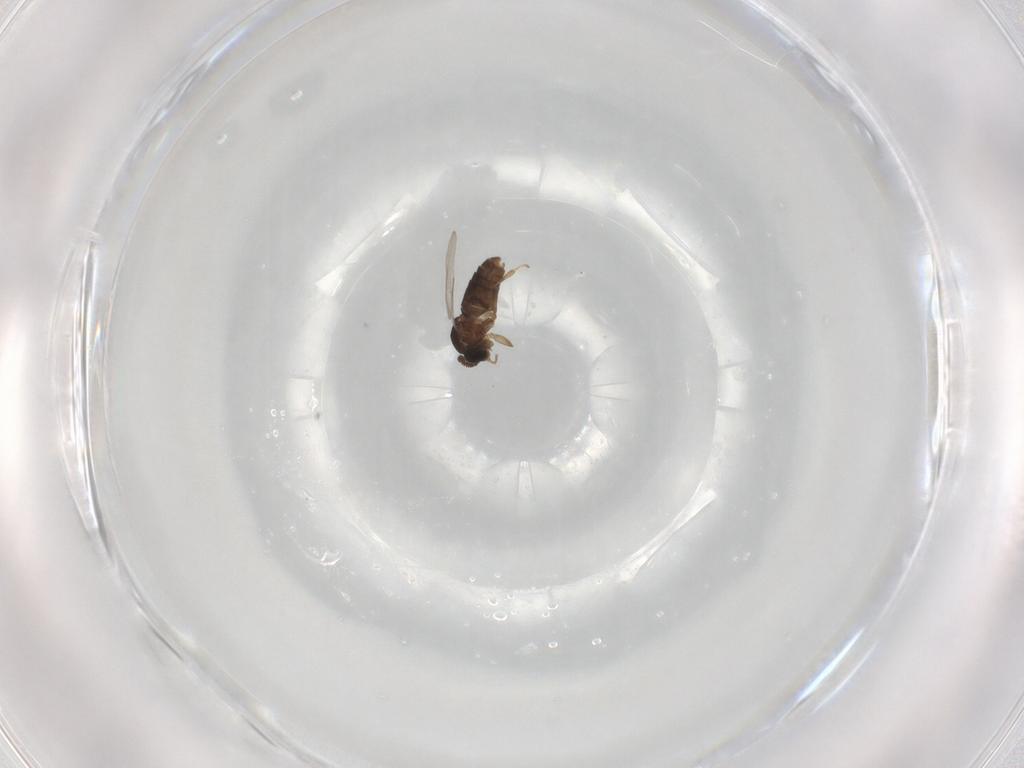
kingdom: Animalia
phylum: Arthropoda
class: Insecta
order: Diptera
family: Scatopsidae
